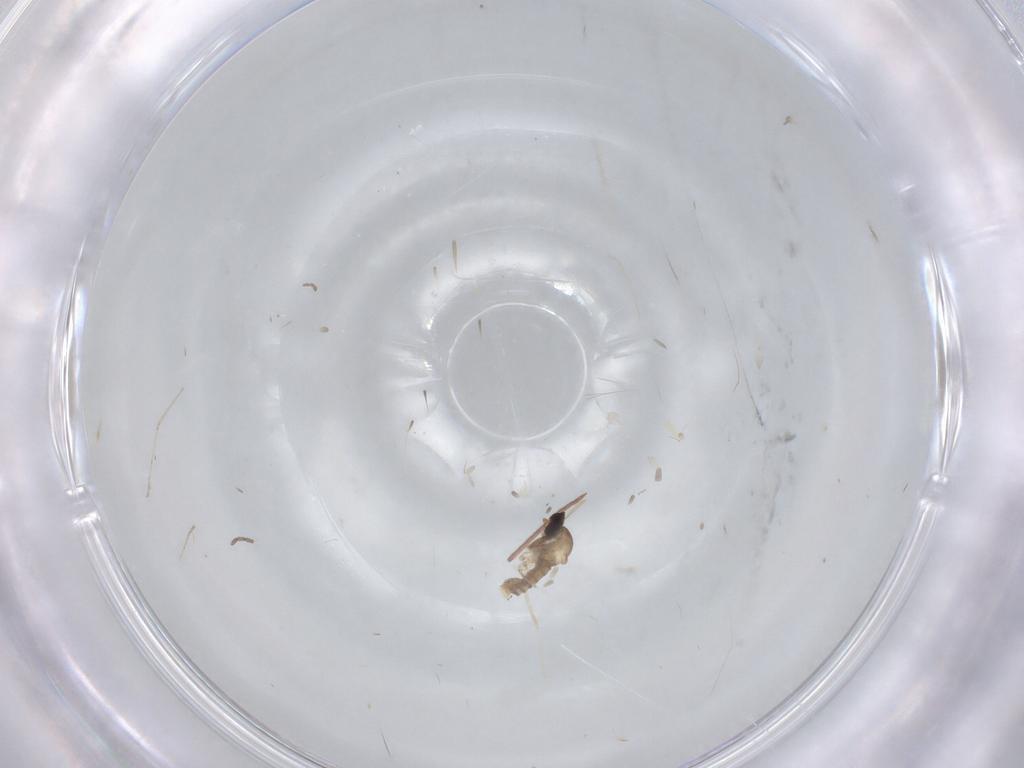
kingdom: Animalia
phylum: Arthropoda
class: Insecta
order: Diptera
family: Cecidomyiidae
